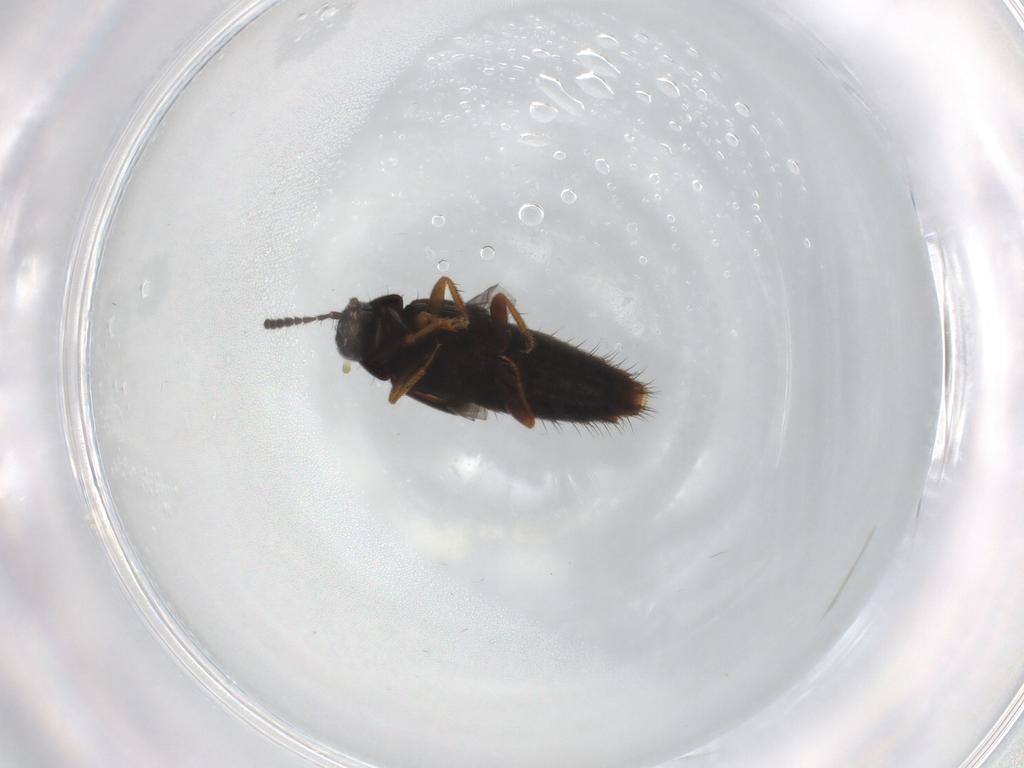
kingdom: Animalia
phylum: Arthropoda
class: Insecta
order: Coleoptera
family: Staphylinidae
